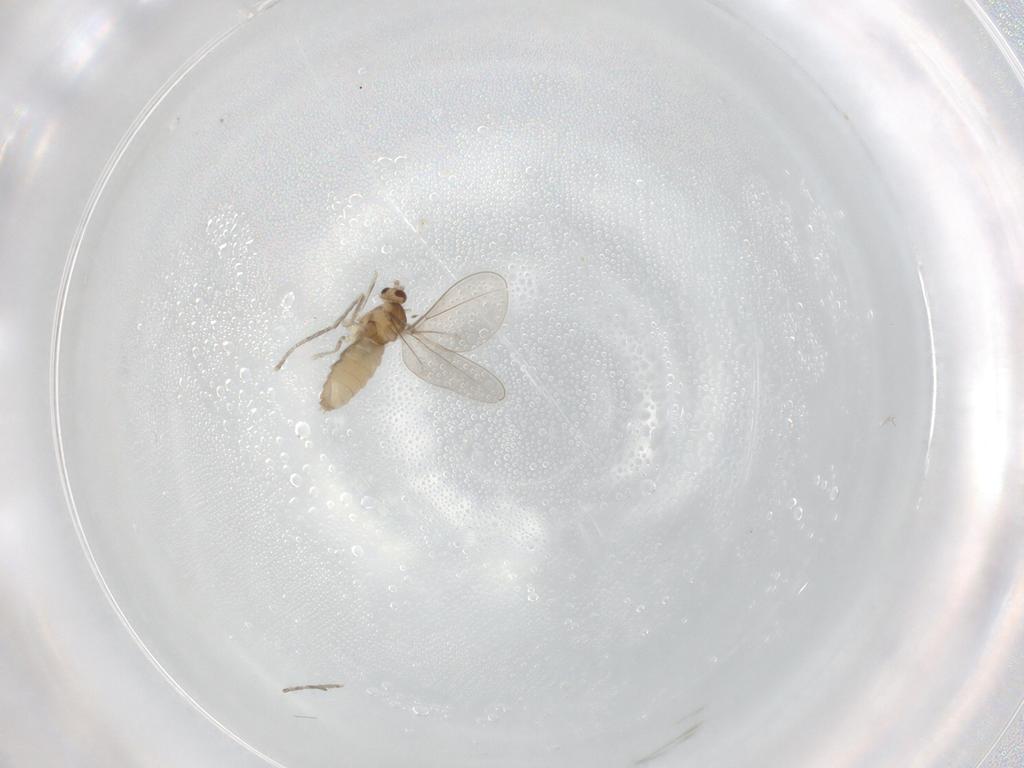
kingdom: Animalia
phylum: Arthropoda
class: Insecta
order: Diptera
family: Cecidomyiidae
